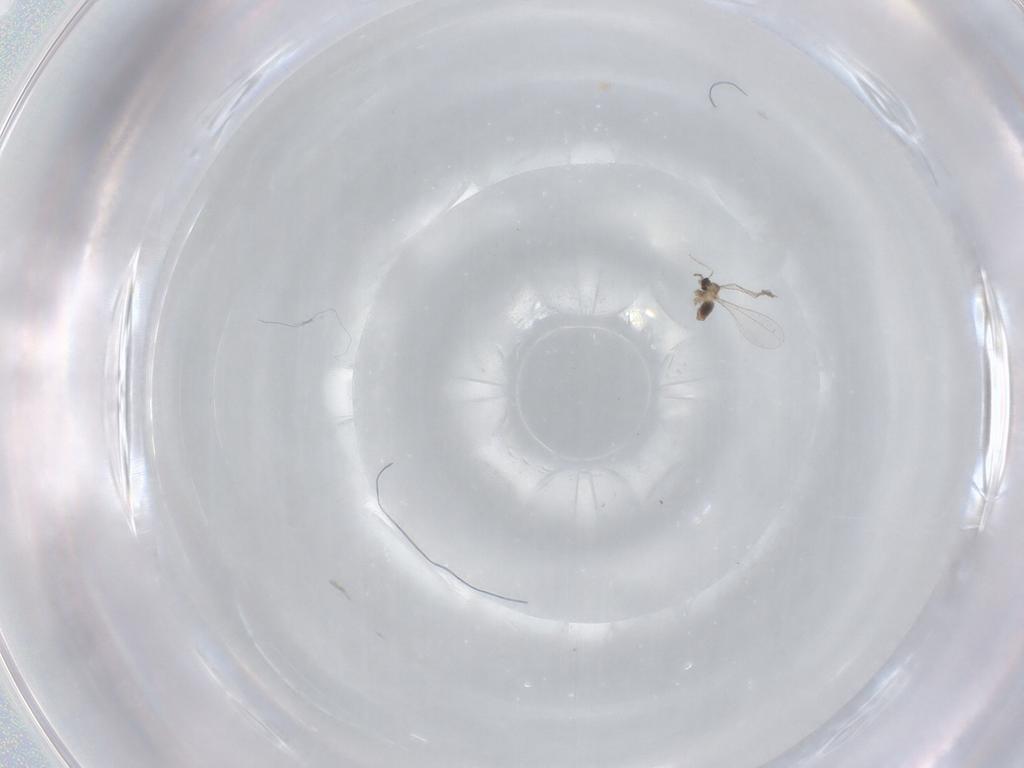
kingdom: Animalia
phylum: Arthropoda
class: Insecta
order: Diptera
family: Cecidomyiidae
